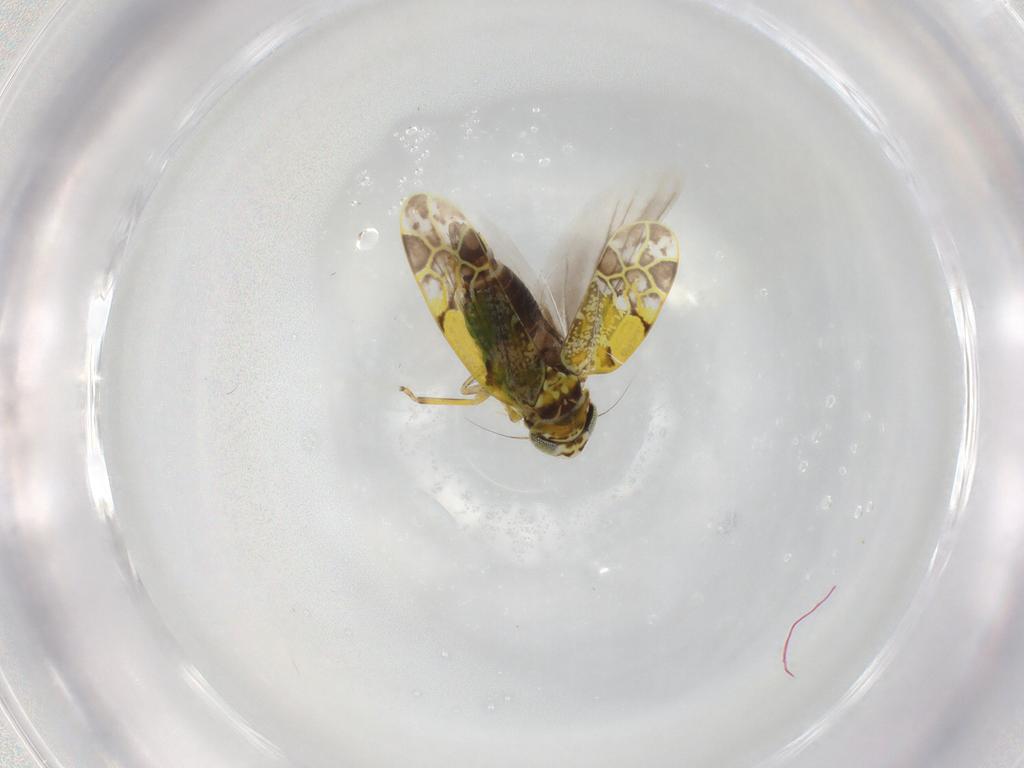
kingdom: Animalia
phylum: Arthropoda
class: Insecta
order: Hemiptera
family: Cicadellidae
